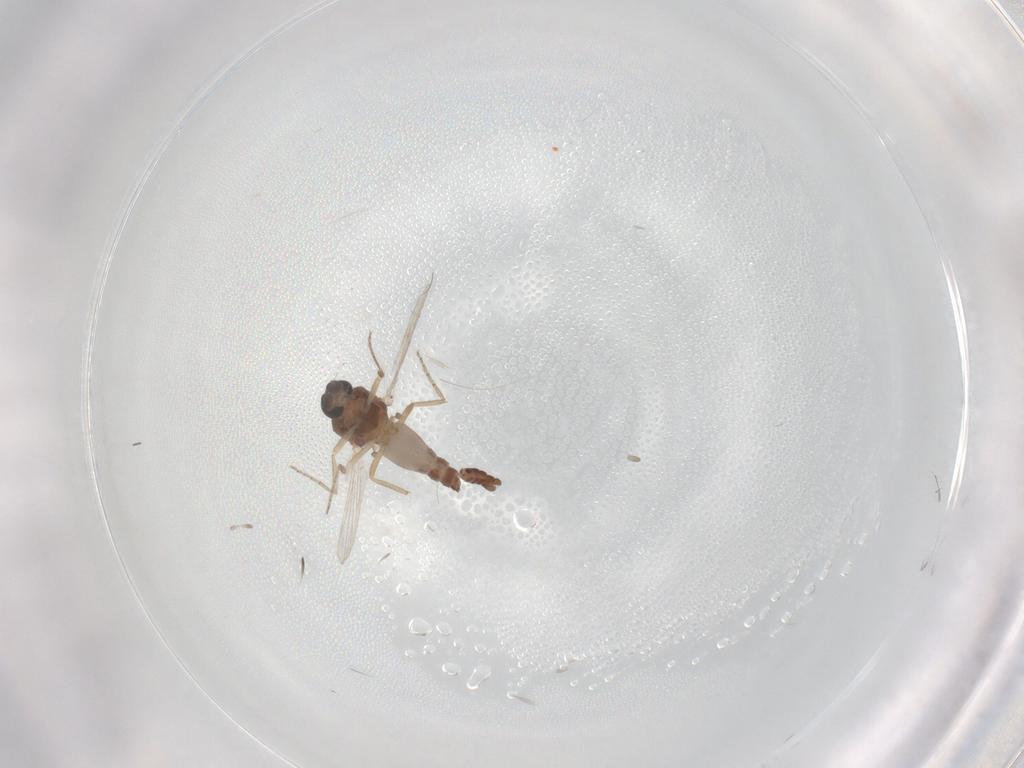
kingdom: Animalia
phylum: Arthropoda
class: Insecta
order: Diptera
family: Ceratopogonidae
